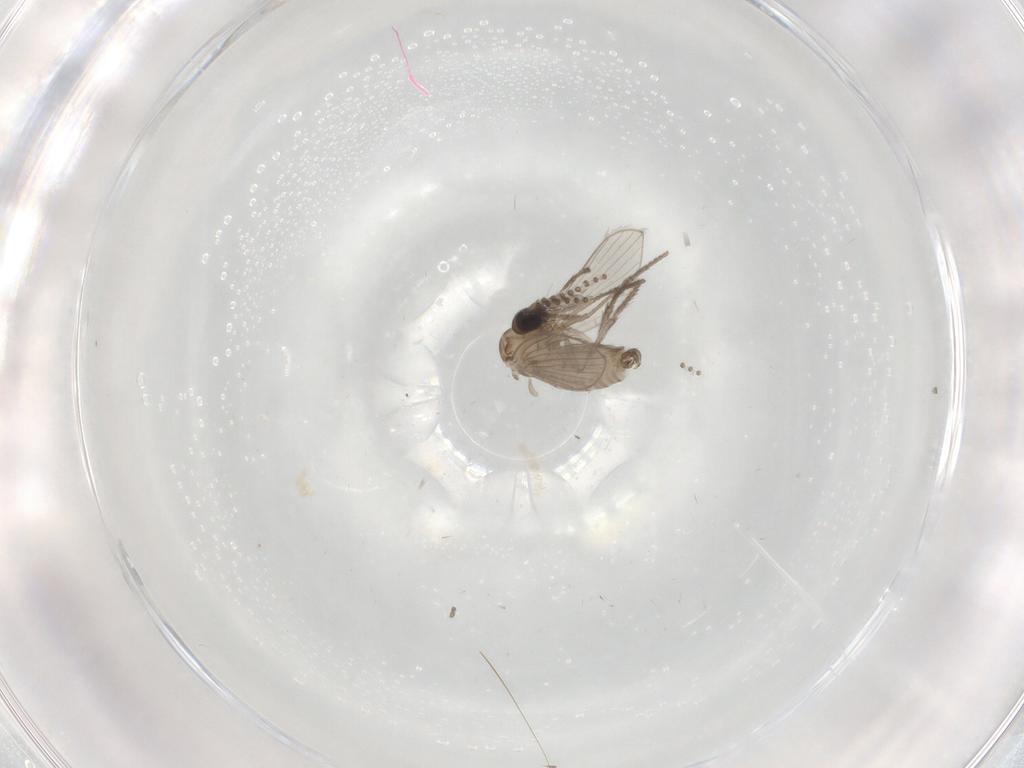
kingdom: Animalia
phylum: Arthropoda
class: Insecta
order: Diptera
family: Psychodidae
